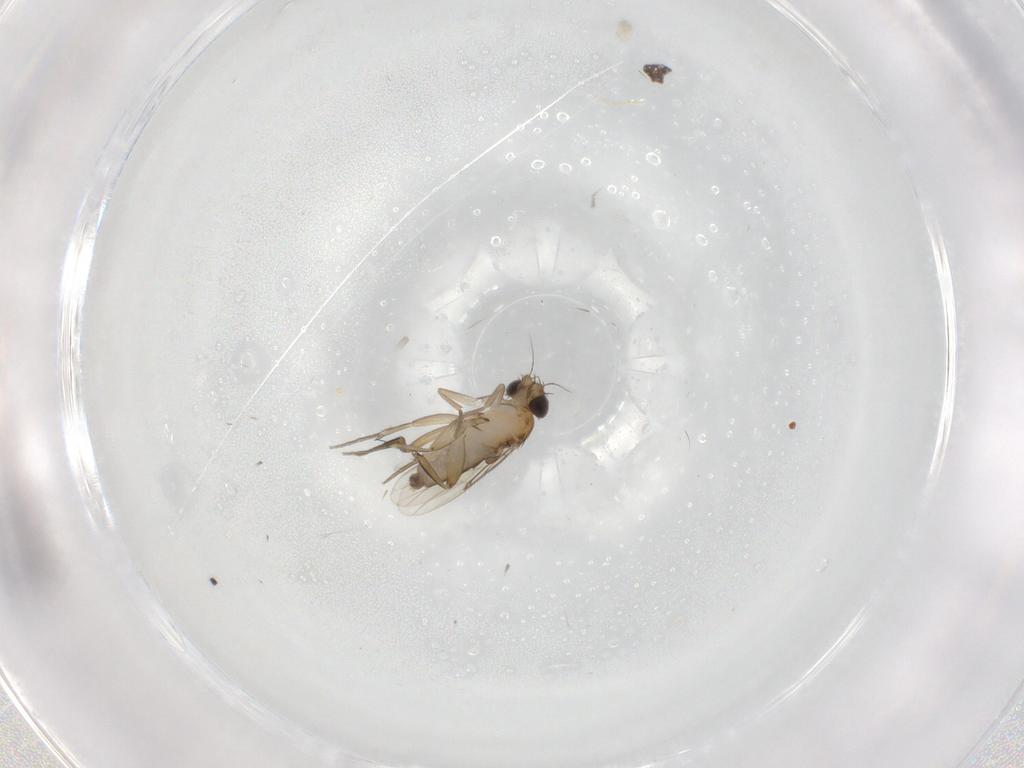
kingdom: Animalia
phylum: Arthropoda
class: Insecta
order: Diptera
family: Phoridae
